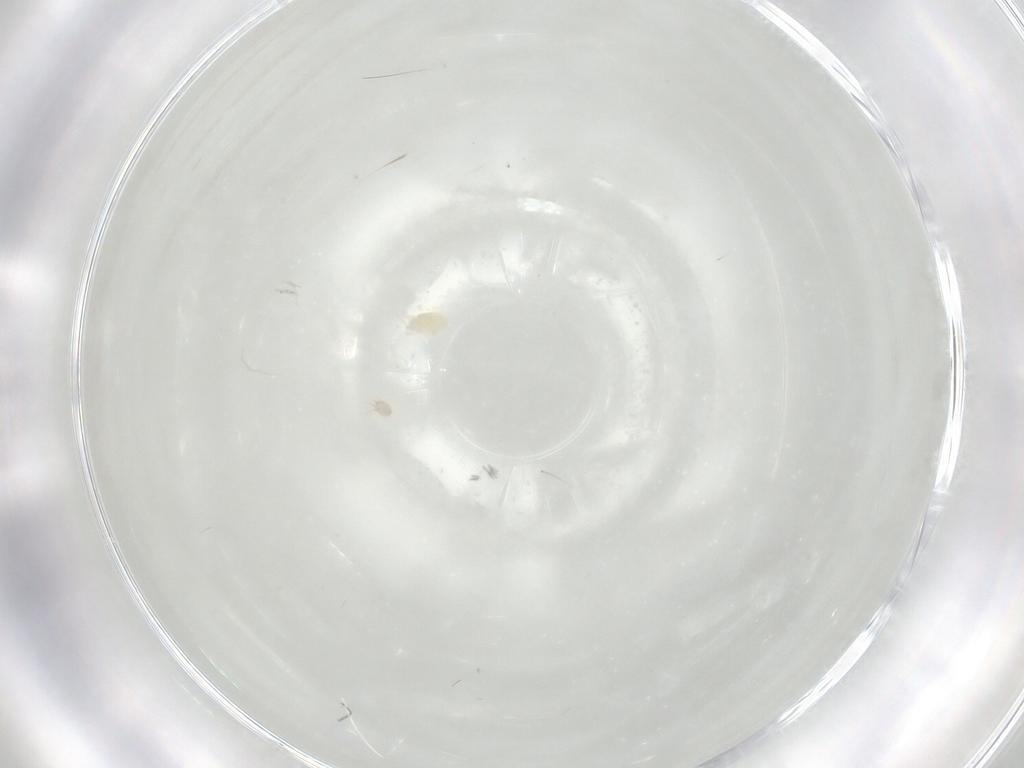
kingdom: Animalia
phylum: Arthropoda
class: Arachnida
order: Trombidiformes
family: Eupodidae
